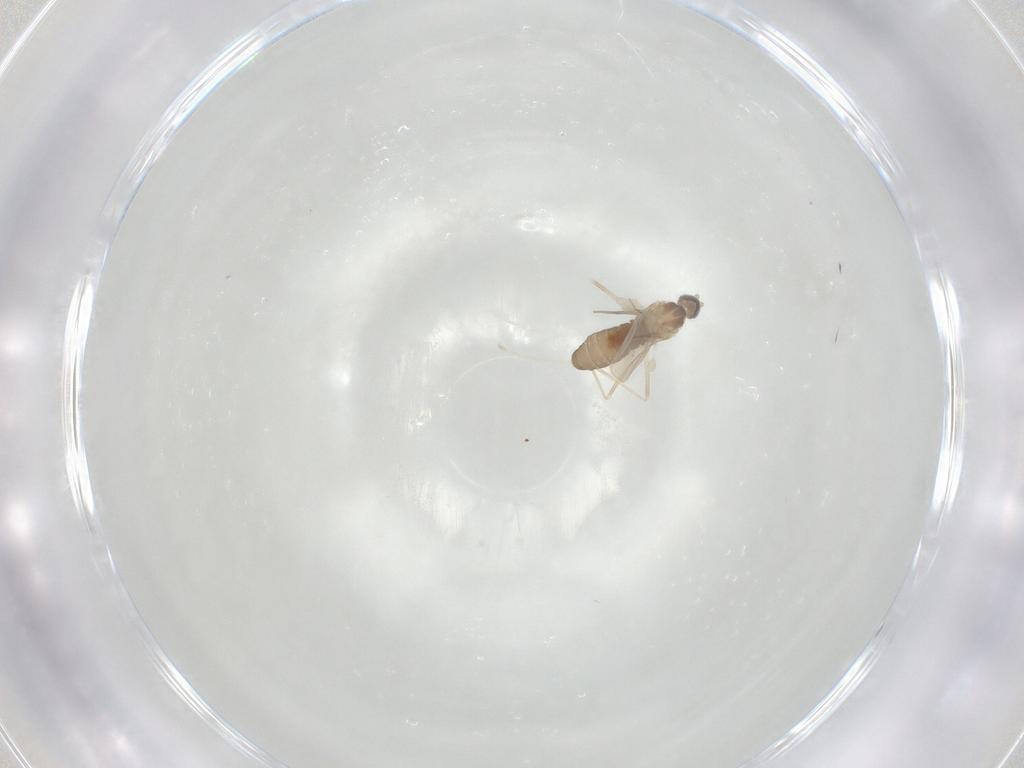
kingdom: Animalia
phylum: Arthropoda
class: Insecta
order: Diptera
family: Cecidomyiidae
